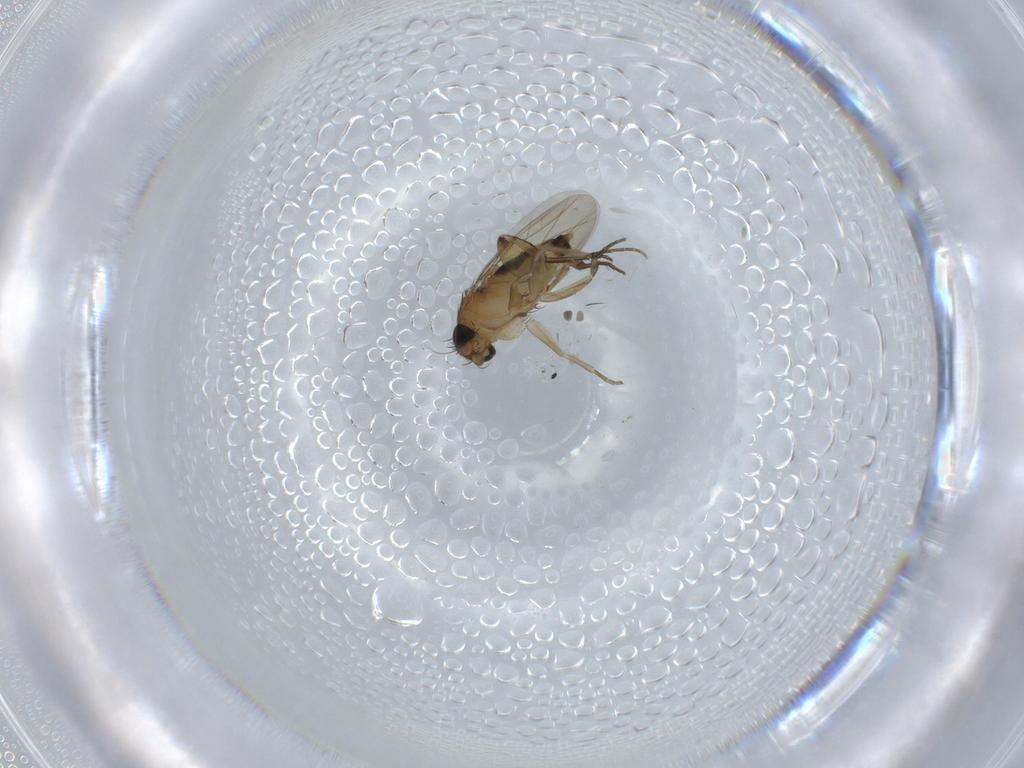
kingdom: Animalia
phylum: Arthropoda
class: Insecta
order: Diptera
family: Phoridae
